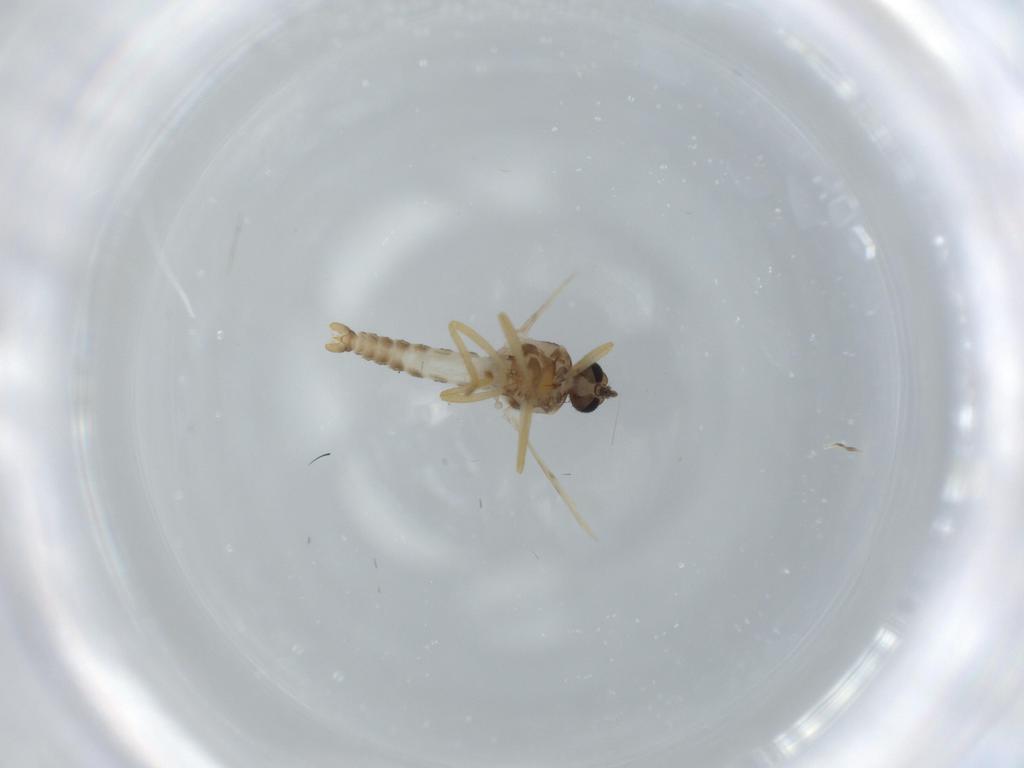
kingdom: Animalia
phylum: Arthropoda
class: Insecta
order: Diptera
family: Ceratopogonidae
